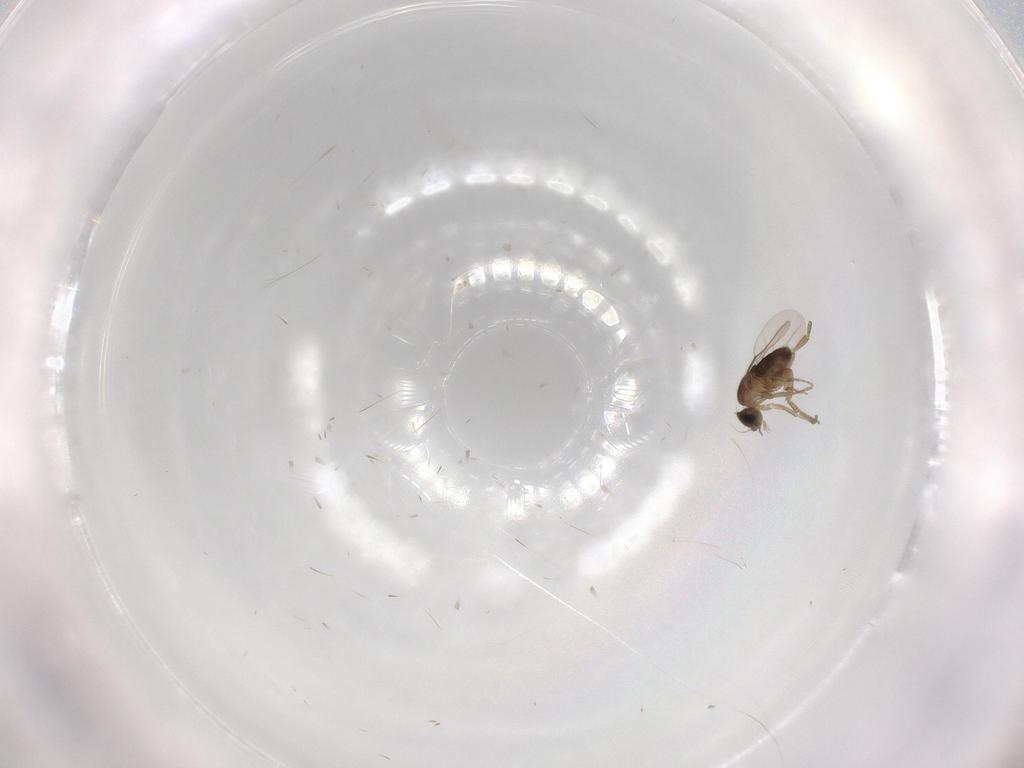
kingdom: Animalia
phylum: Arthropoda
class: Insecta
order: Diptera
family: Phoridae
